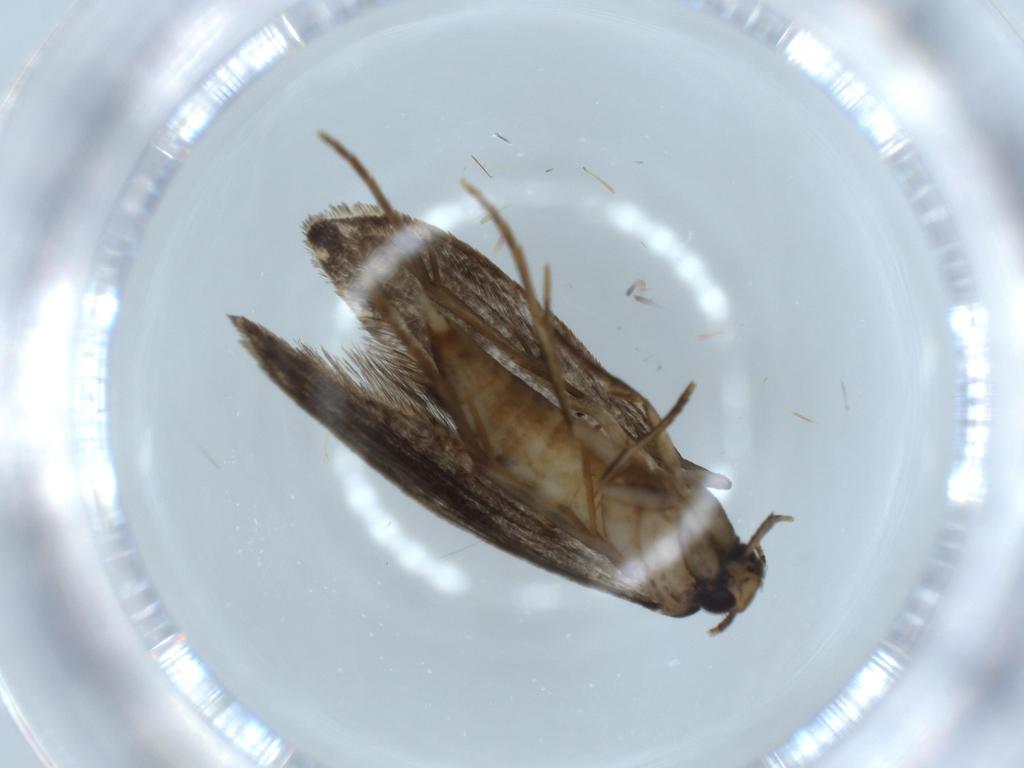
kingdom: Animalia
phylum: Arthropoda
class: Insecta
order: Lepidoptera
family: Tineidae
